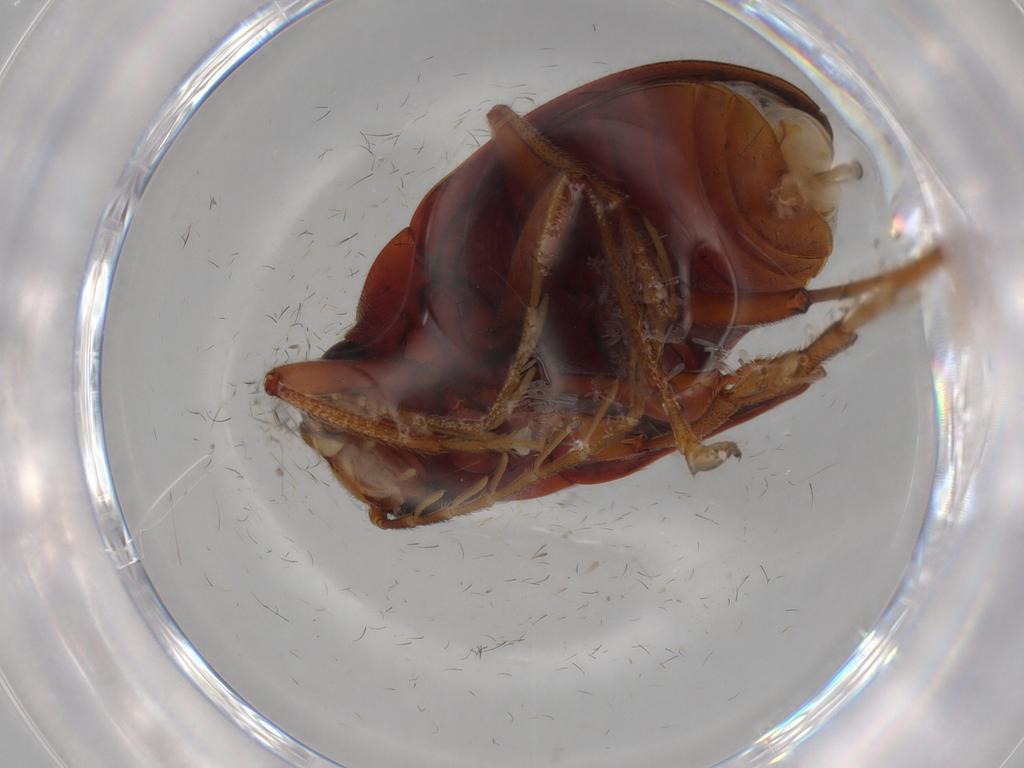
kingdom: Animalia
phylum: Arthropoda
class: Insecta
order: Coleoptera
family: Ptilodactylidae
